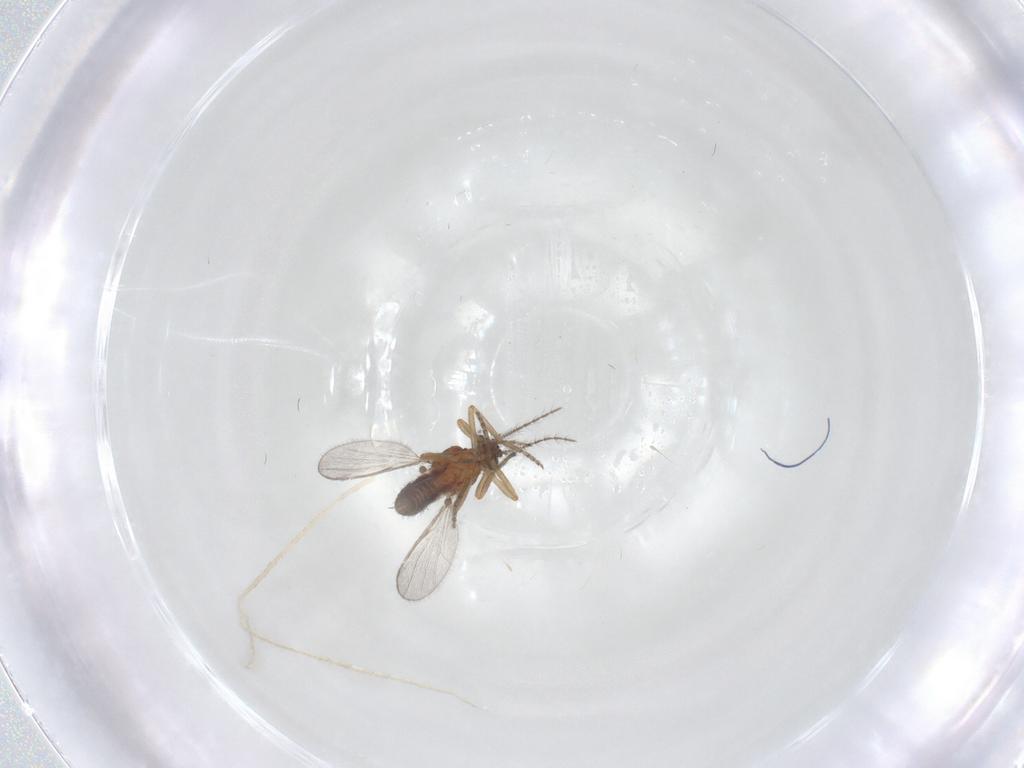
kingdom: Animalia
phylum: Arthropoda
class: Insecta
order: Diptera
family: Ceratopogonidae
